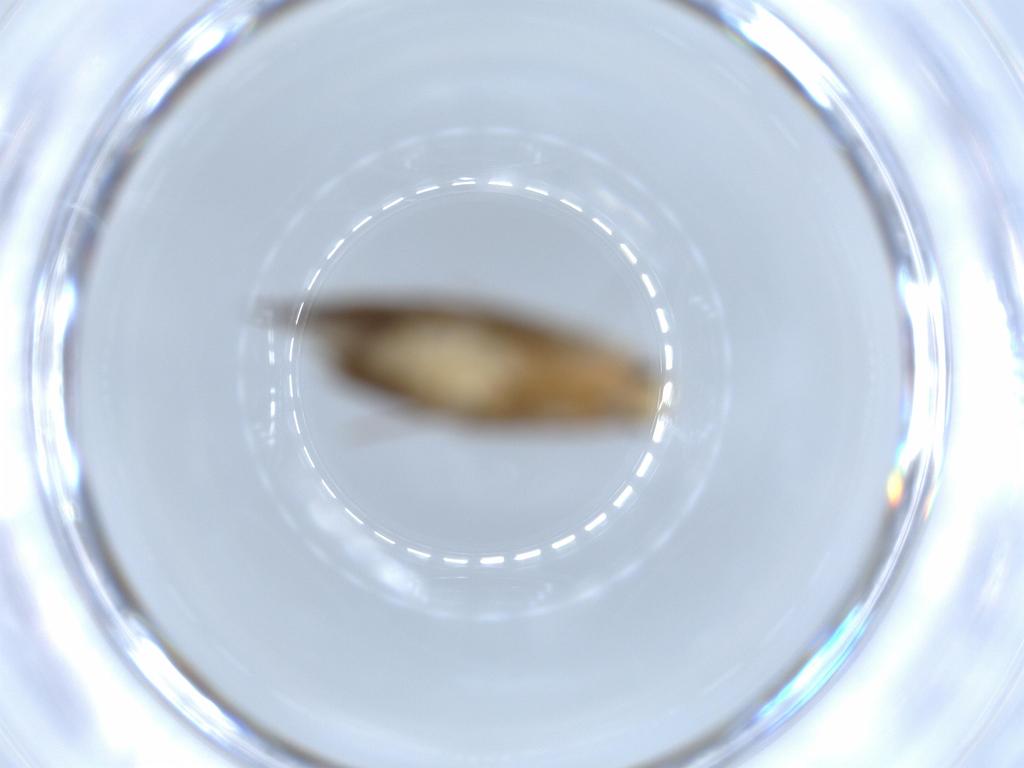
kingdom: Animalia
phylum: Arthropoda
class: Insecta
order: Lepidoptera
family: Tineidae
